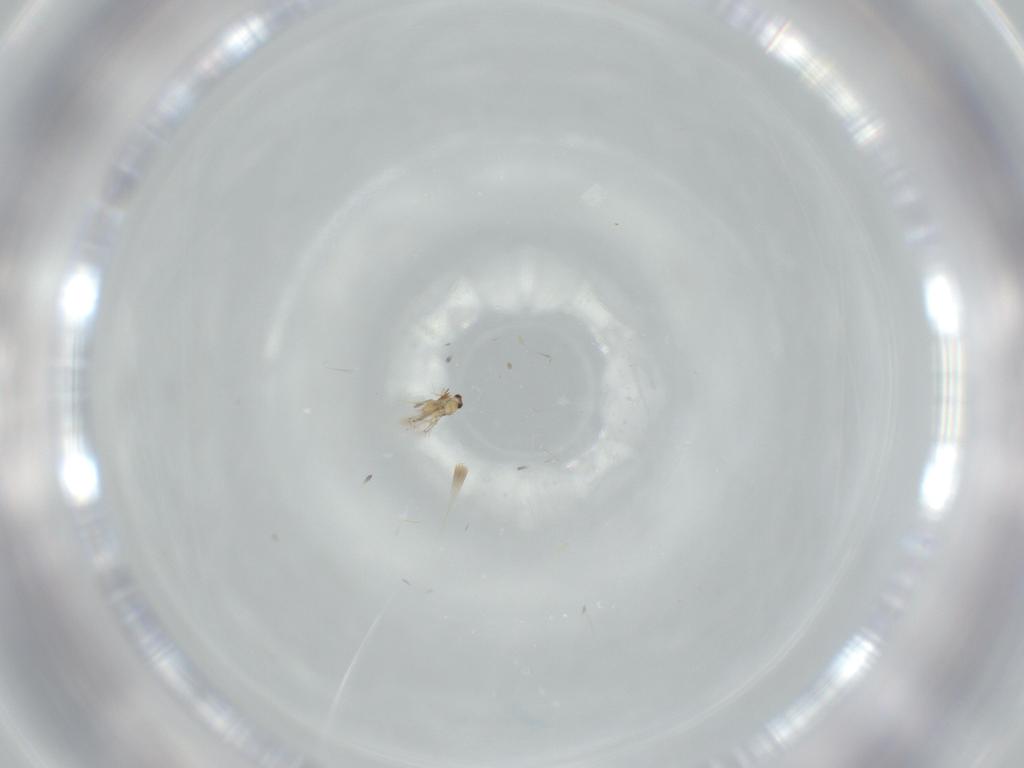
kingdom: Animalia
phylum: Arthropoda
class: Insecta
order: Hymenoptera
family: Formicidae
